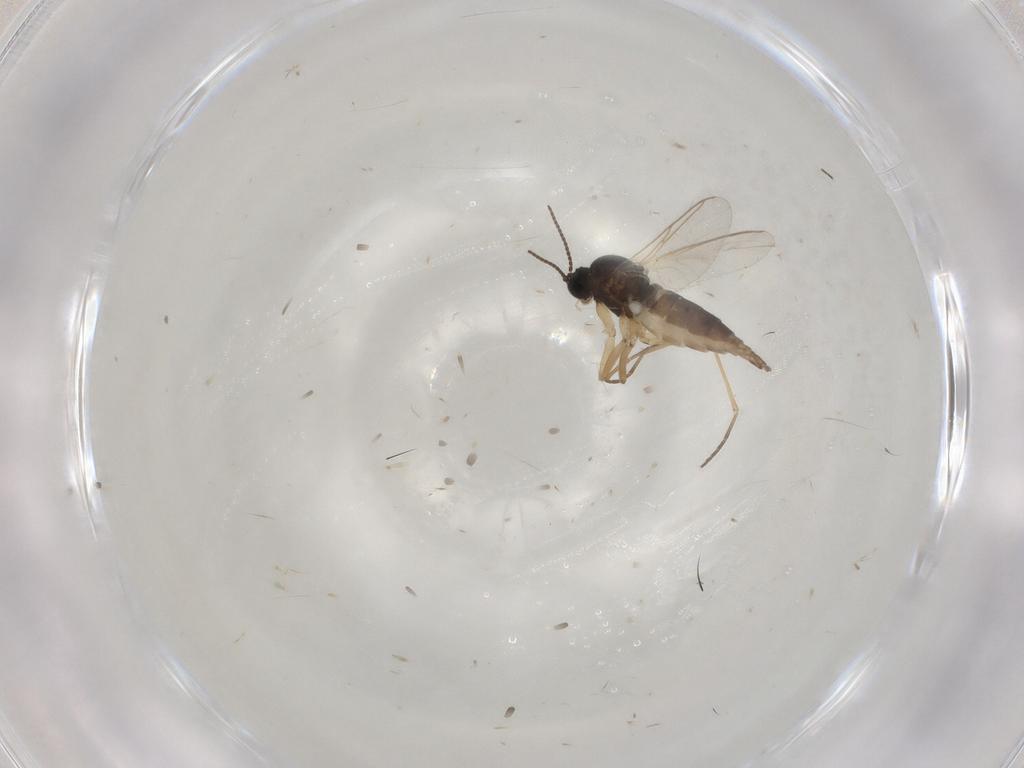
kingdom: Animalia
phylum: Arthropoda
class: Insecta
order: Diptera
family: Sciaridae
